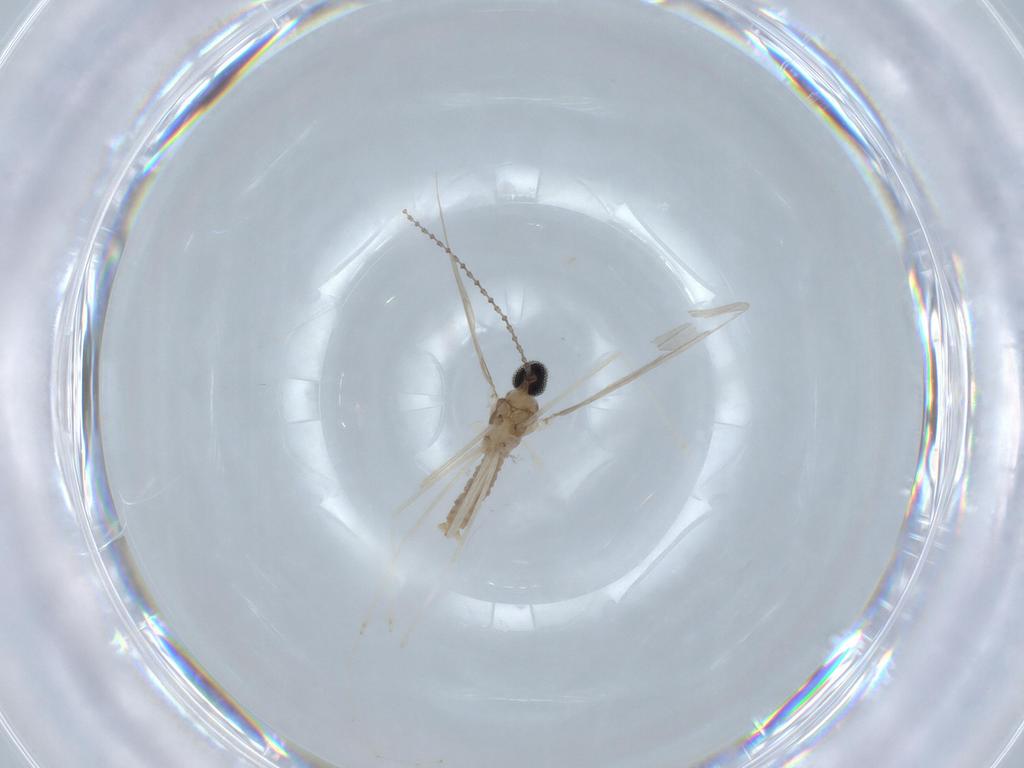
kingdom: Animalia
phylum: Arthropoda
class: Insecta
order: Diptera
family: Cecidomyiidae
